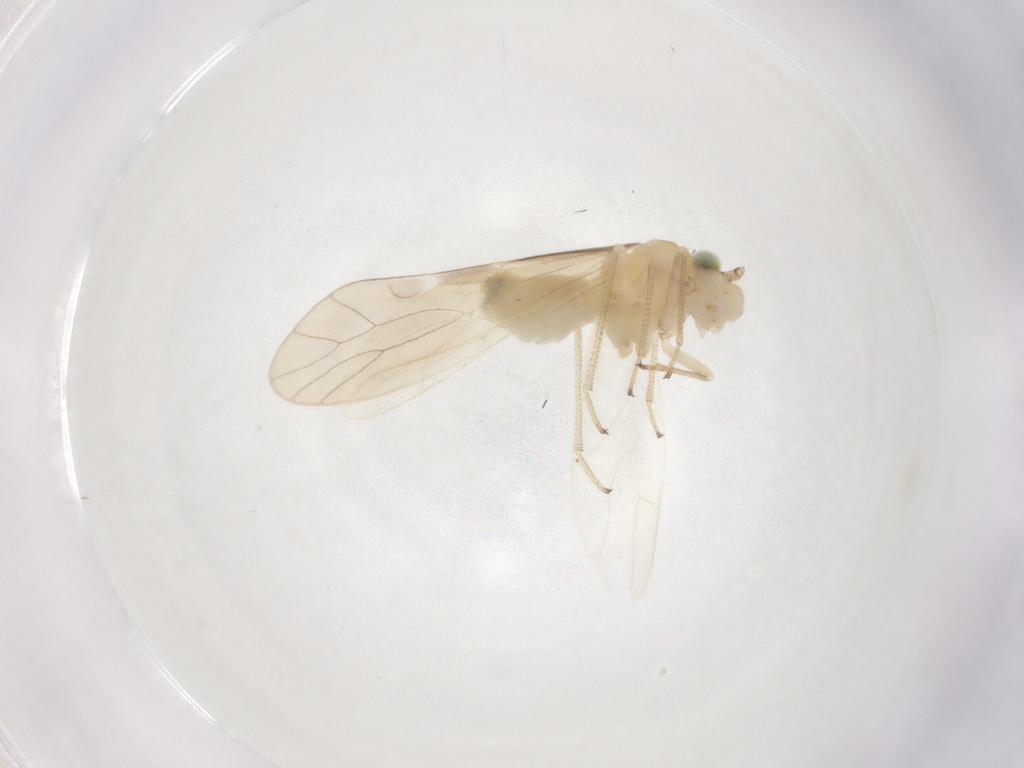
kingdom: Animalia
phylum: Arthropoda
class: Insecta
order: Psocodea
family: Caeciliusidae
